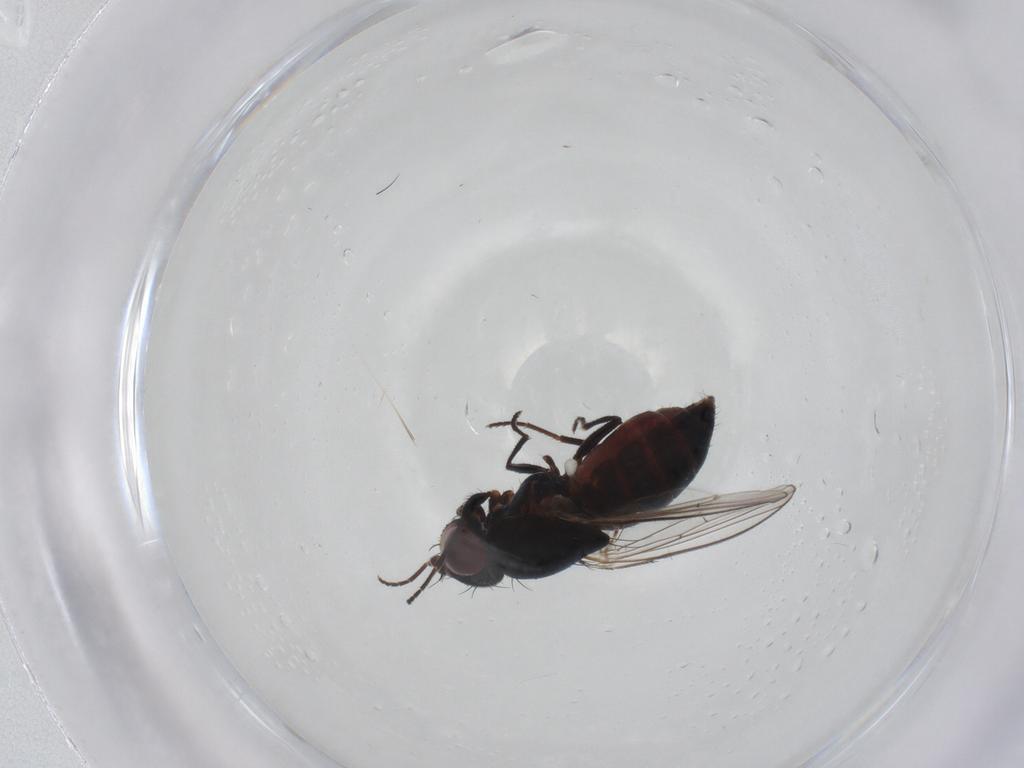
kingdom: Animalia
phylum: Arthropoda
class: Insecta
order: Diptera
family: Carnidae
